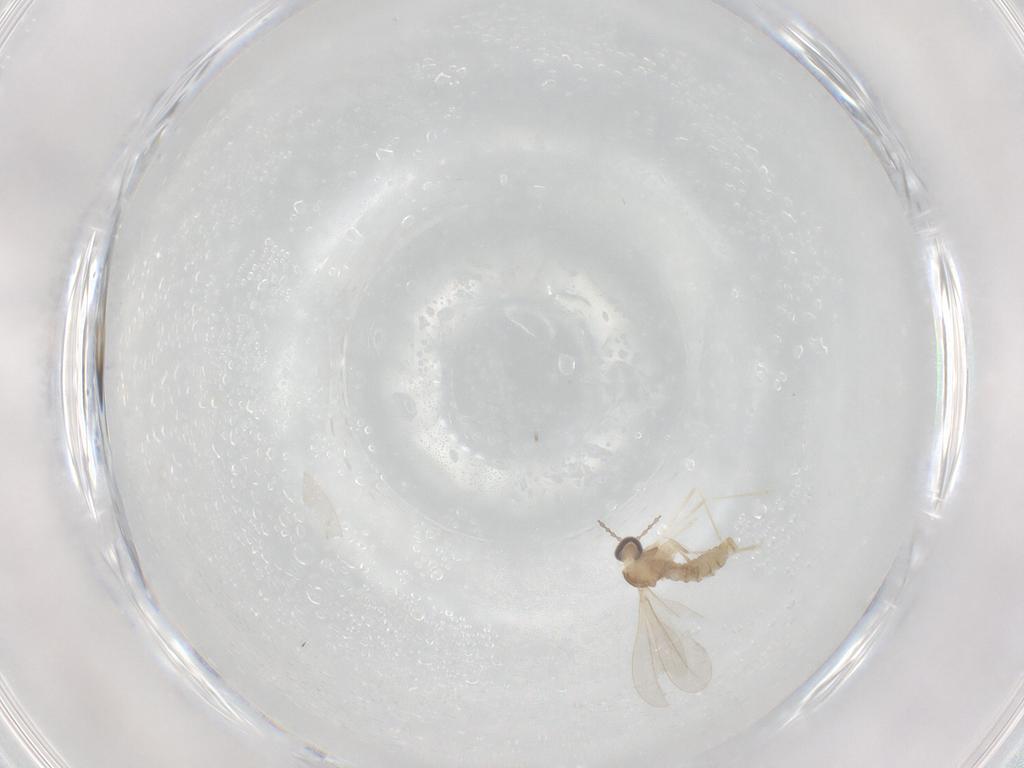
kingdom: Animalia
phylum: Arthropoda
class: Insecta
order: Diptera
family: Cecidomyiidae
